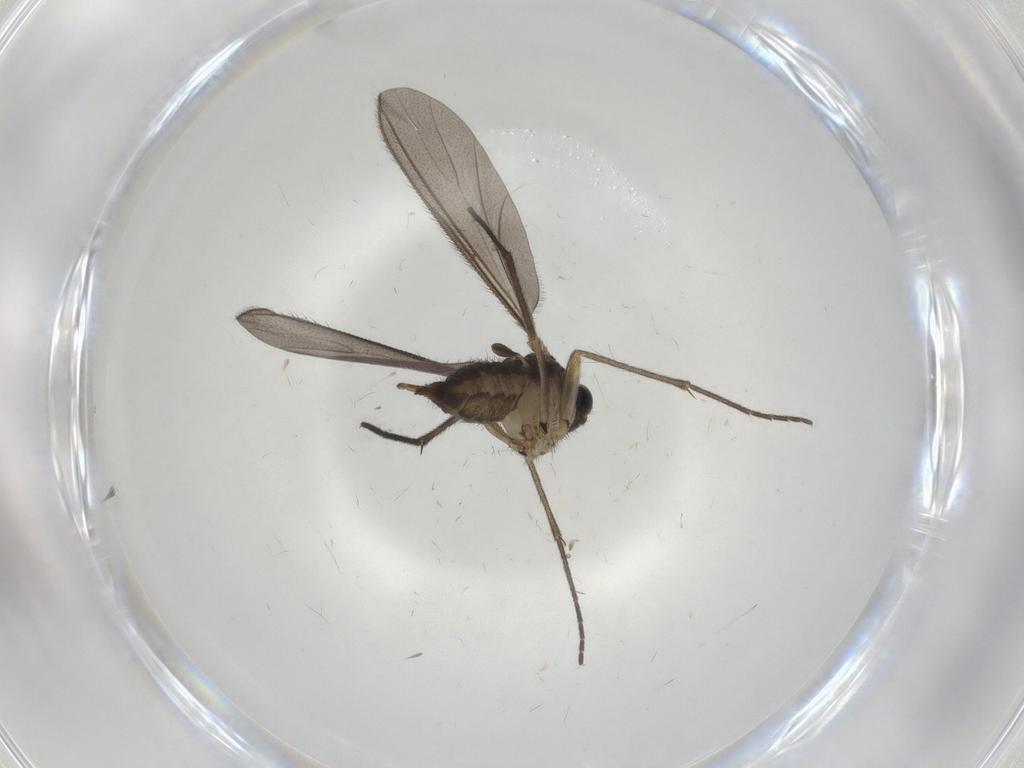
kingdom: Animalia
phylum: Arthropoda
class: Insecta
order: Diptera
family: Sciaridae
